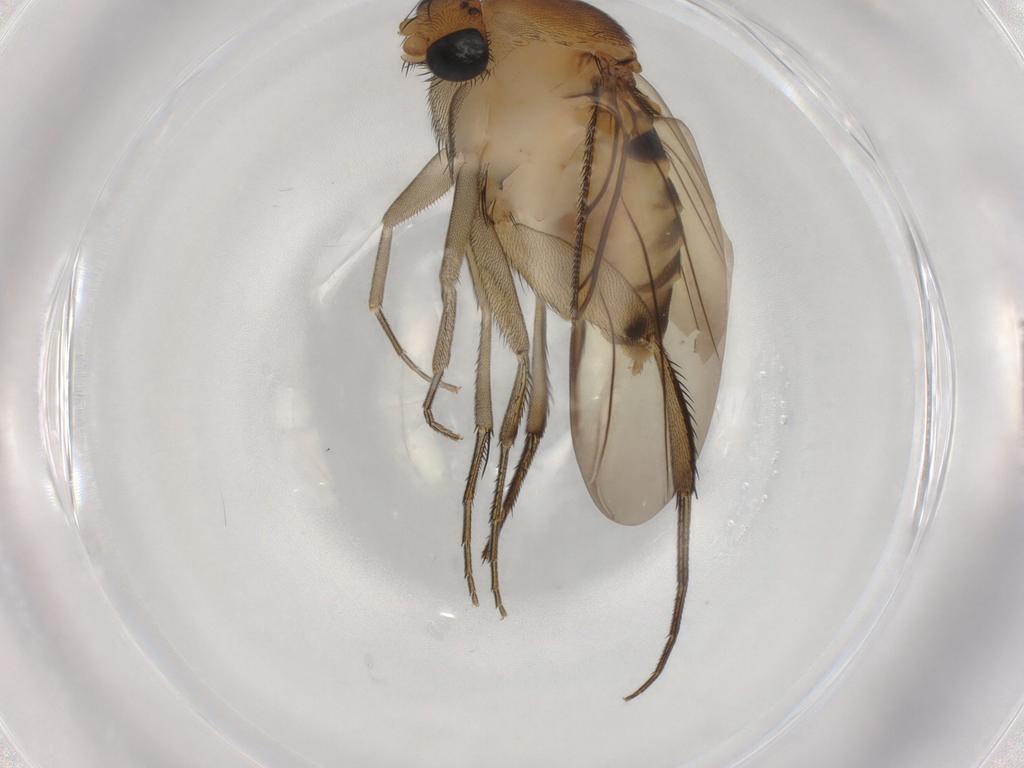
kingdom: Animalia
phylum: Arthropoda
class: Insecta
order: Diptera
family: Phoridae
